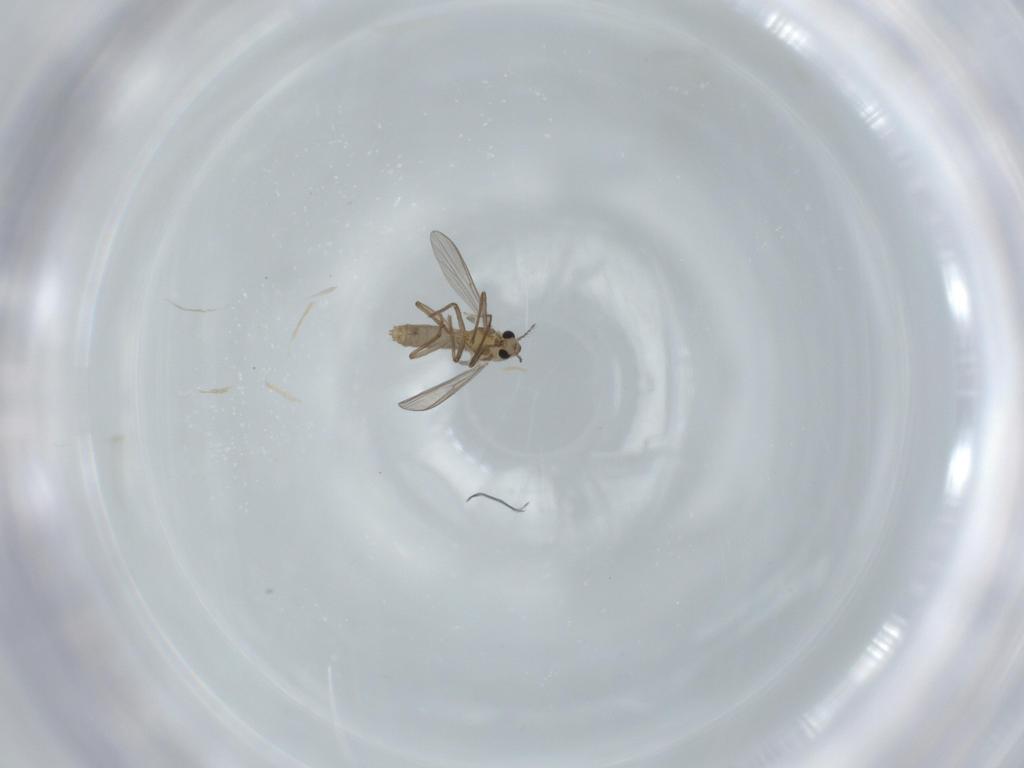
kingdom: Animalia
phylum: Arthropoda
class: Insecta
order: Diptera
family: Chironomidae
